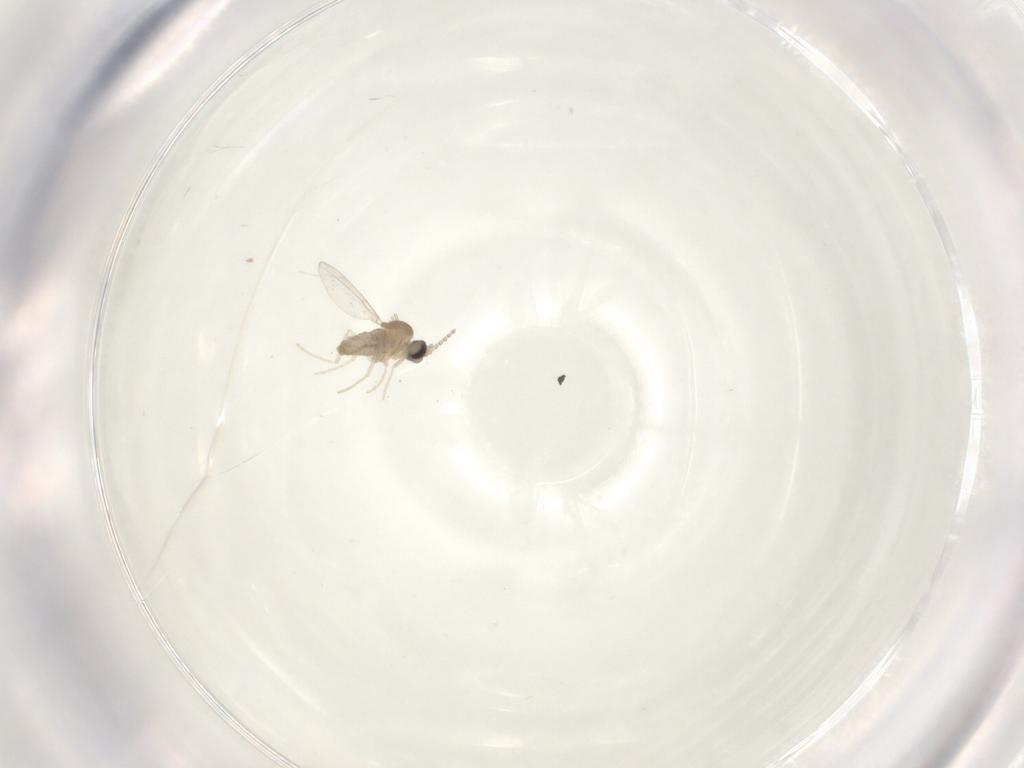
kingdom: Animalia
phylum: Arthropoda
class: Insecta
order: Diptera
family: Cecidomyiidae
